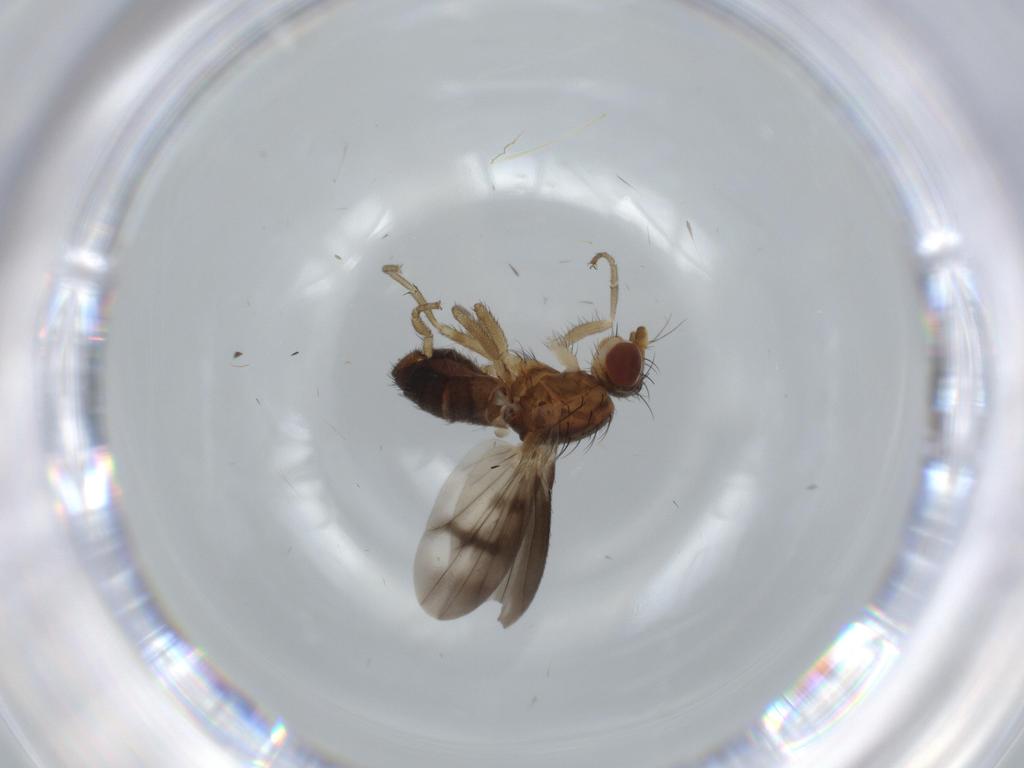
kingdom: Animalia
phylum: Arthropoda
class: Insecta
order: Diptera
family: Heleomyzidae
